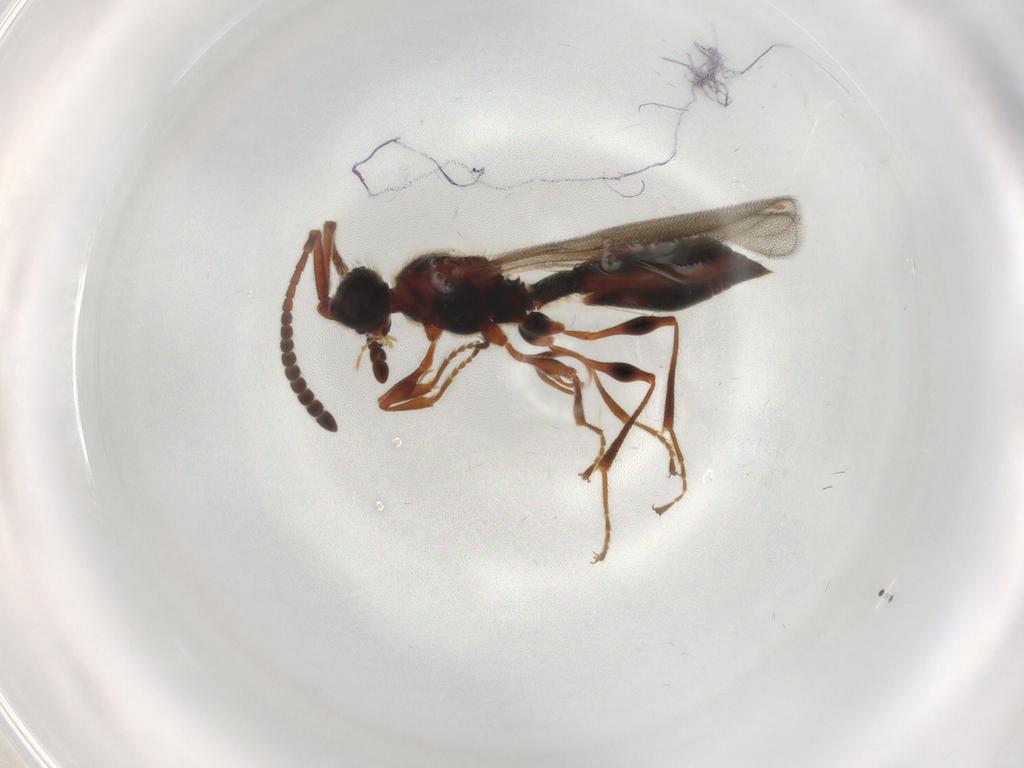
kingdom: Animalia
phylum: Arthropoda
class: Insecta
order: Hymenoptera
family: Diapriidae
